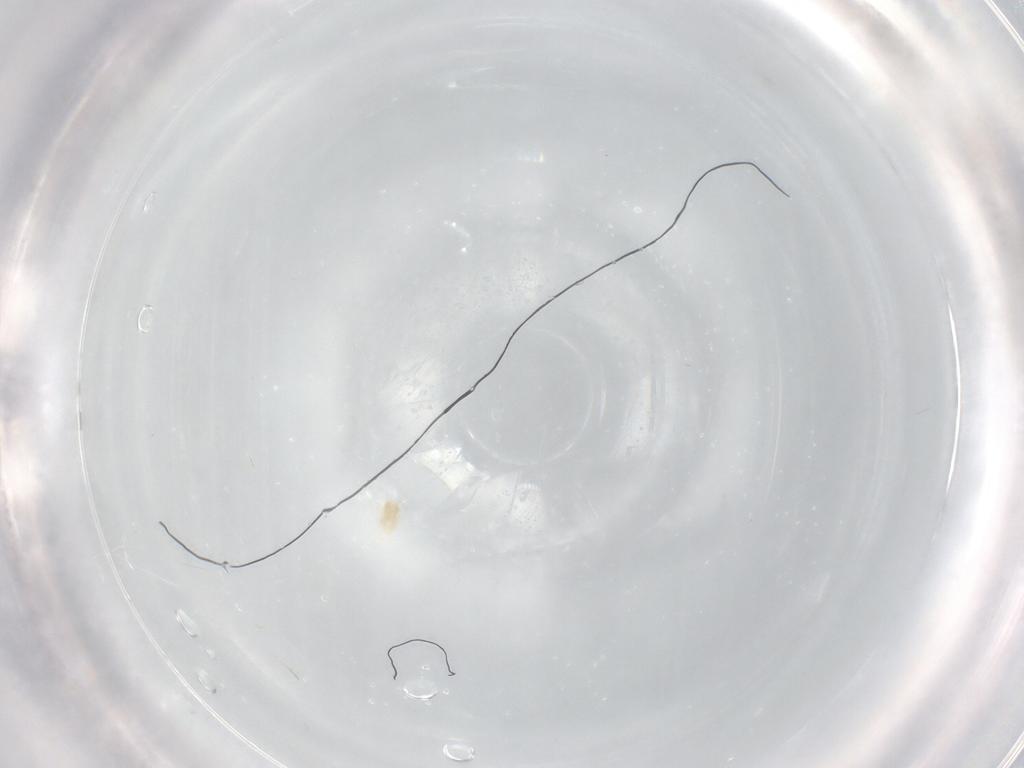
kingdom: Animalia
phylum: Arthropoda
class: Arachnida
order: Trombidiformes
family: Eupodidae
